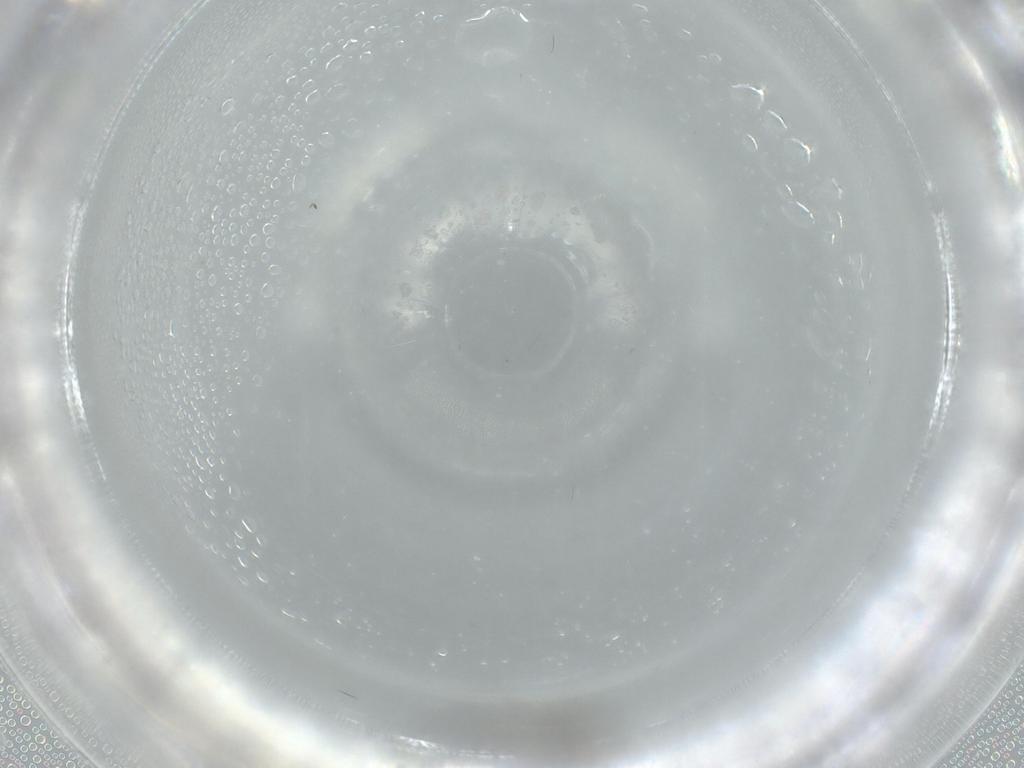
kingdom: Animalia
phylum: Arthropoda
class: Insecta
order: Diptera
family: Sciaridae
